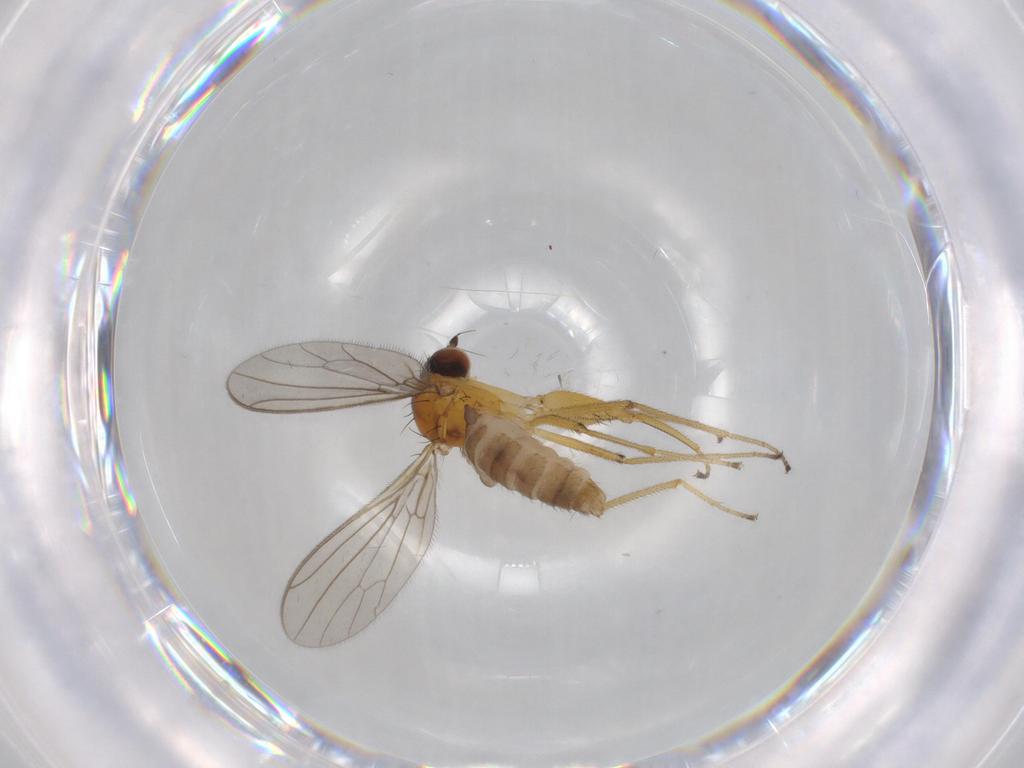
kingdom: Animalia
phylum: Arthropoda
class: Insecta
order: Diptera
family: Empididae
